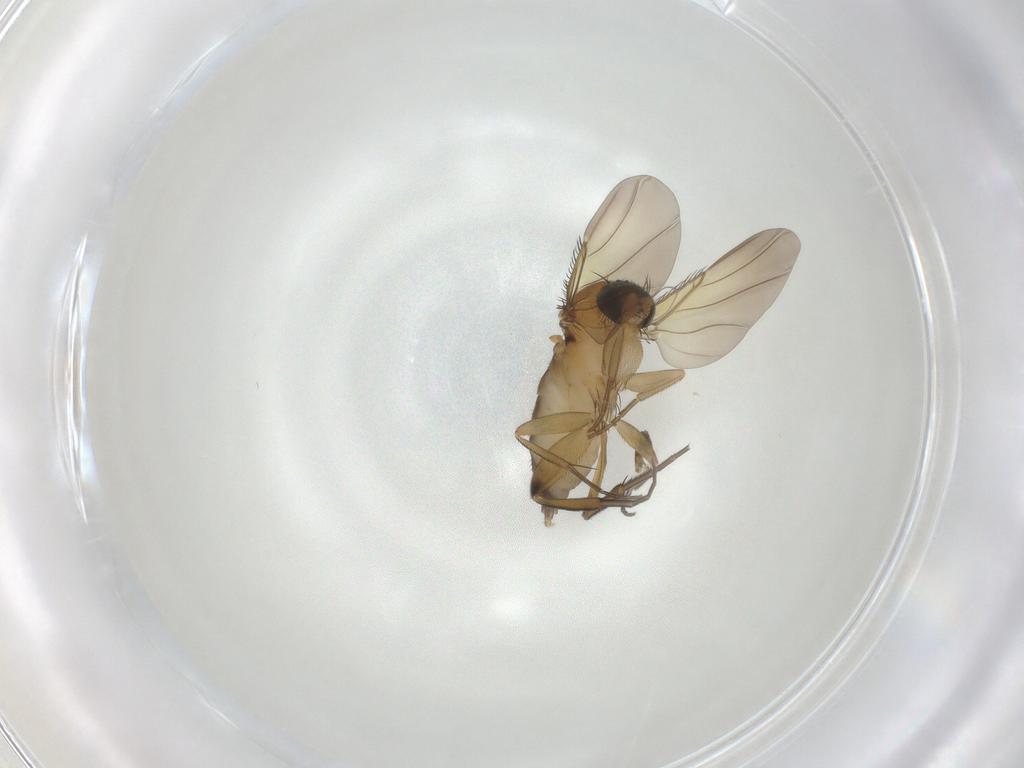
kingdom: Animalia
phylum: Arthropoda
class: Insecta
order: Diptera
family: Phoridae
